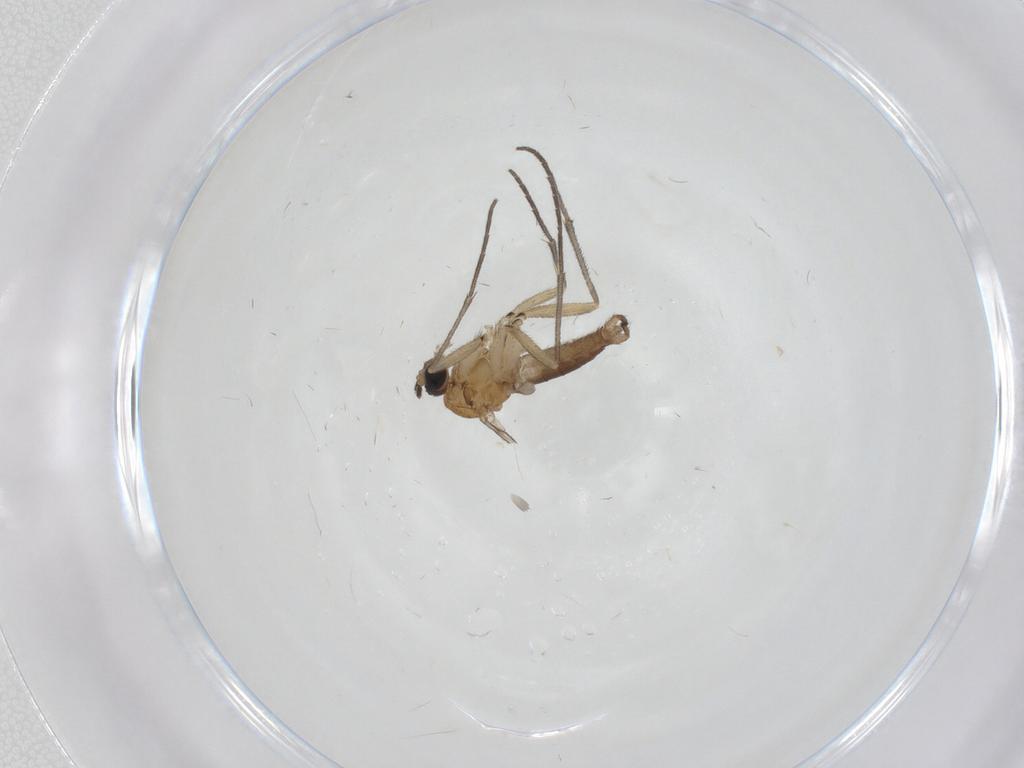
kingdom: Animalia
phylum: Arthropoda
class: Insecta
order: Diptera
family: Sciaridae
